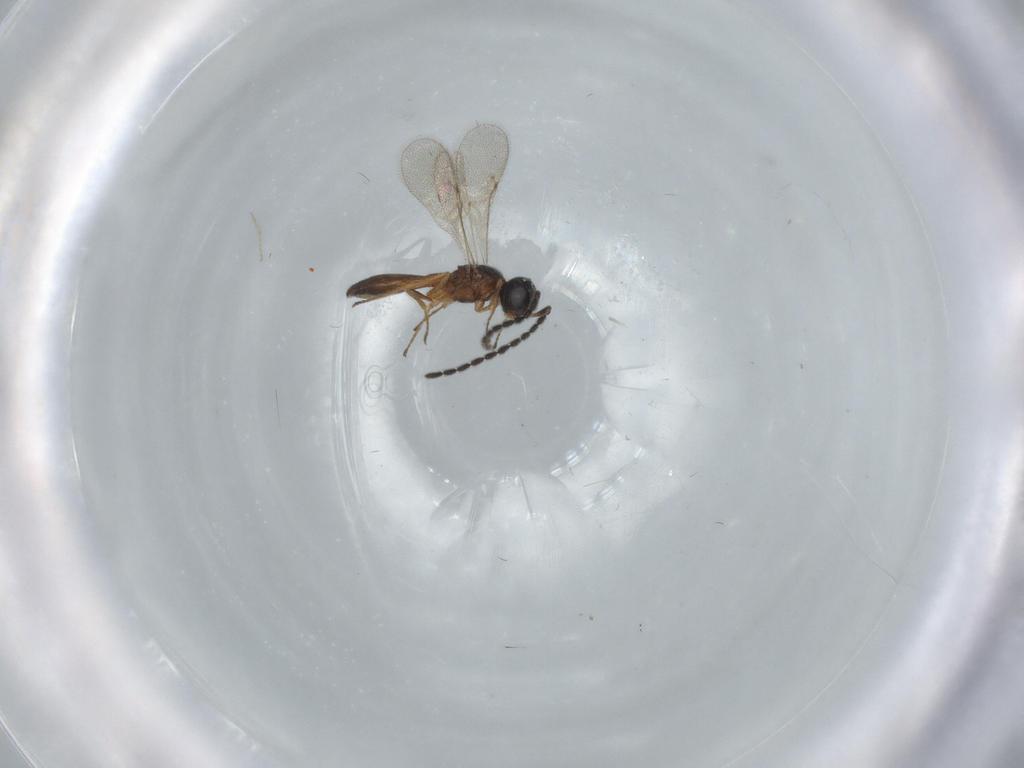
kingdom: Animalia
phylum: Arthropoda
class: Insecta
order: Hymenoptera
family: Scelionidae
